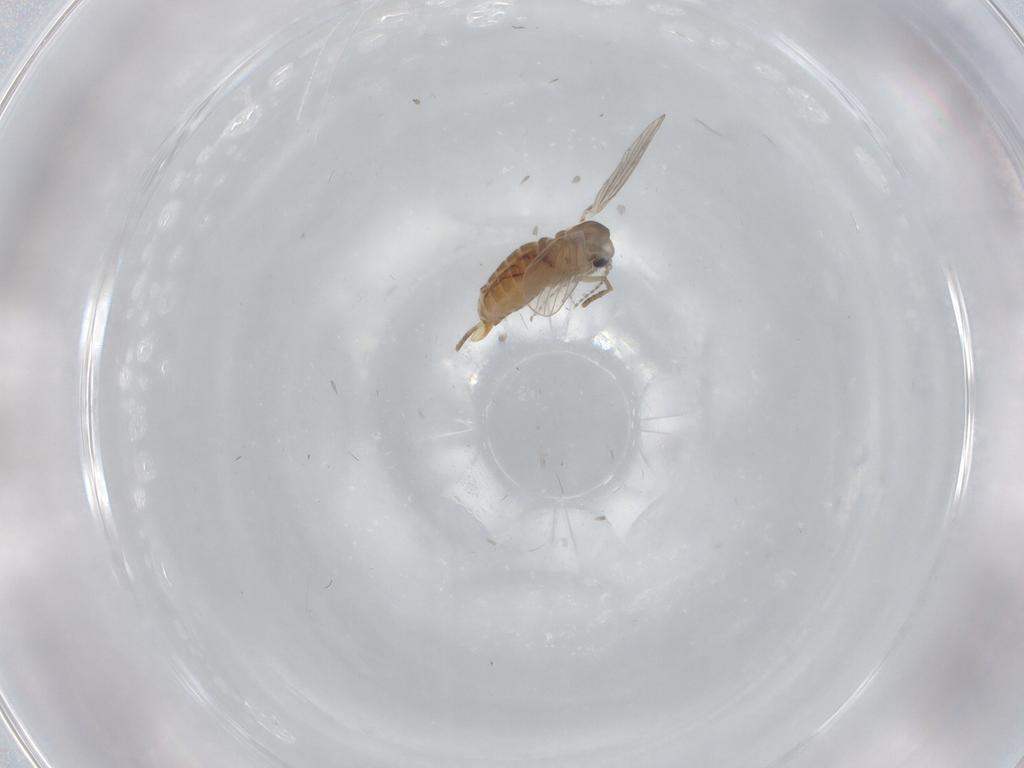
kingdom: Animalia
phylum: Arthropoda
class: Insecta
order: Diptera
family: Psychodidae
